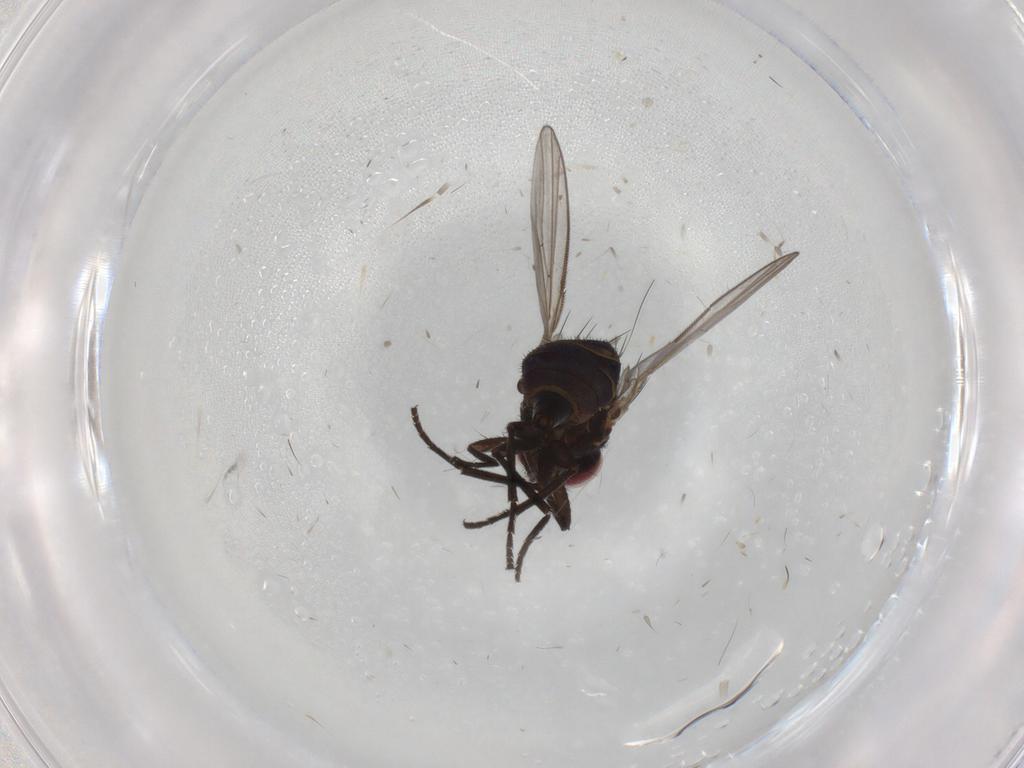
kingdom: Animalia
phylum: Arthropoda
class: Insecta
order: Diptera
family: Agromyzidae
